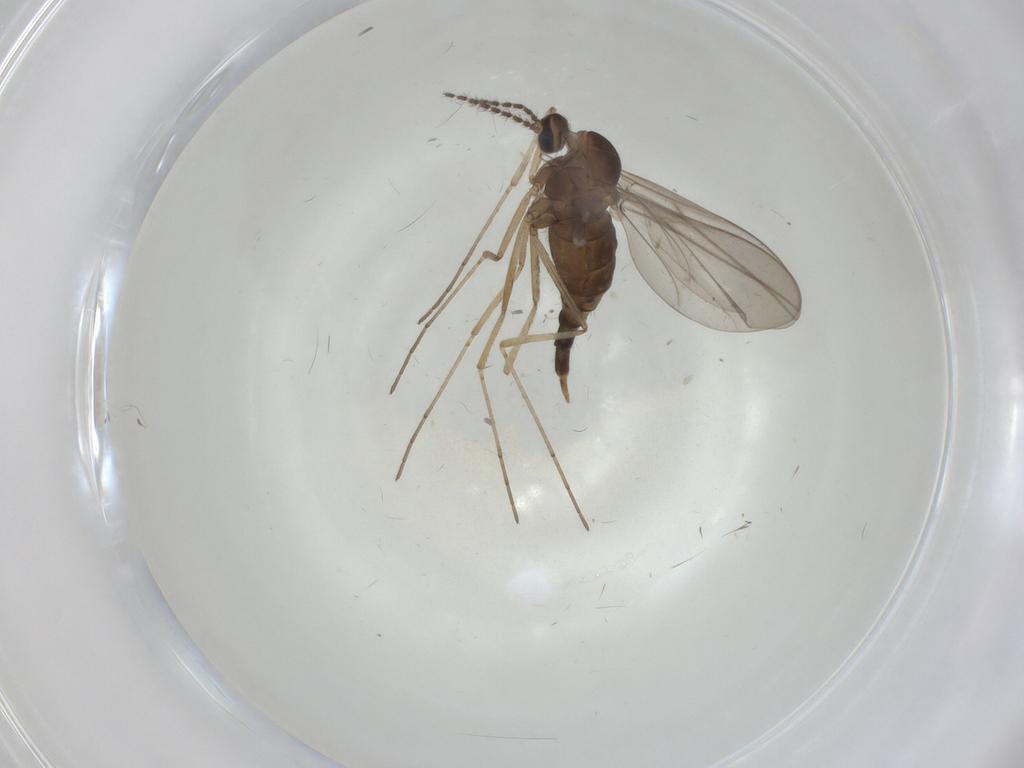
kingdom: Animalia
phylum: Arthropoda
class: Insecta
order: Diptera
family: Cecidomyiidae
